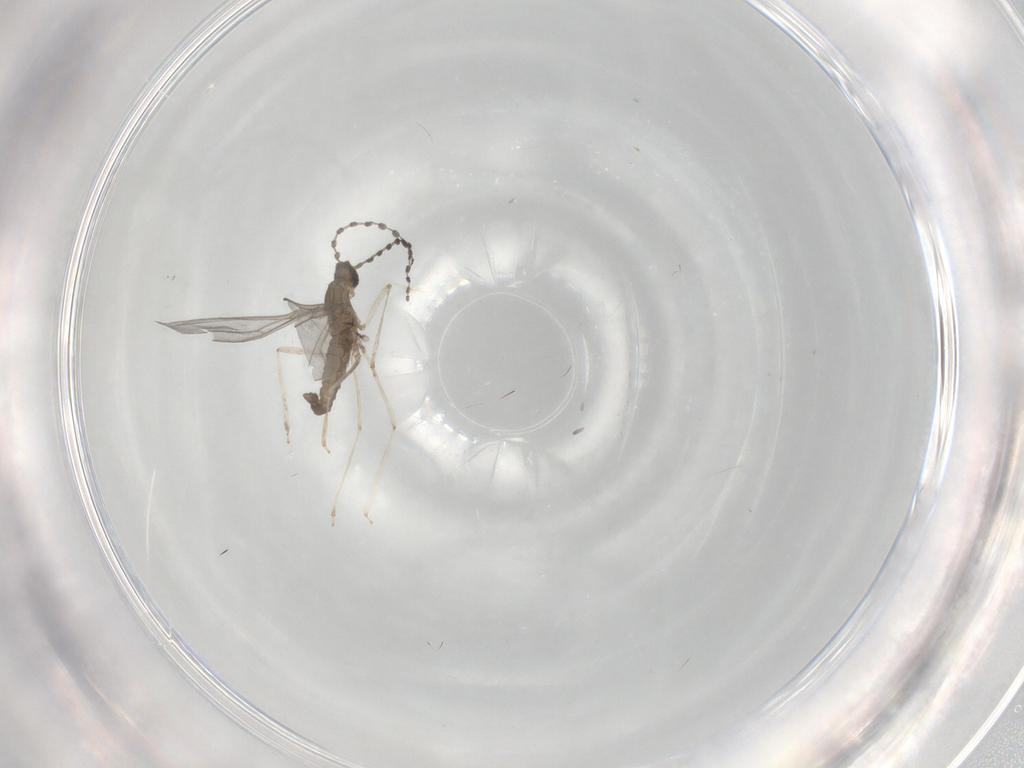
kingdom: Animalia
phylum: Arthropoda
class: Insecta
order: Diptera
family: Cecidomyiidae
